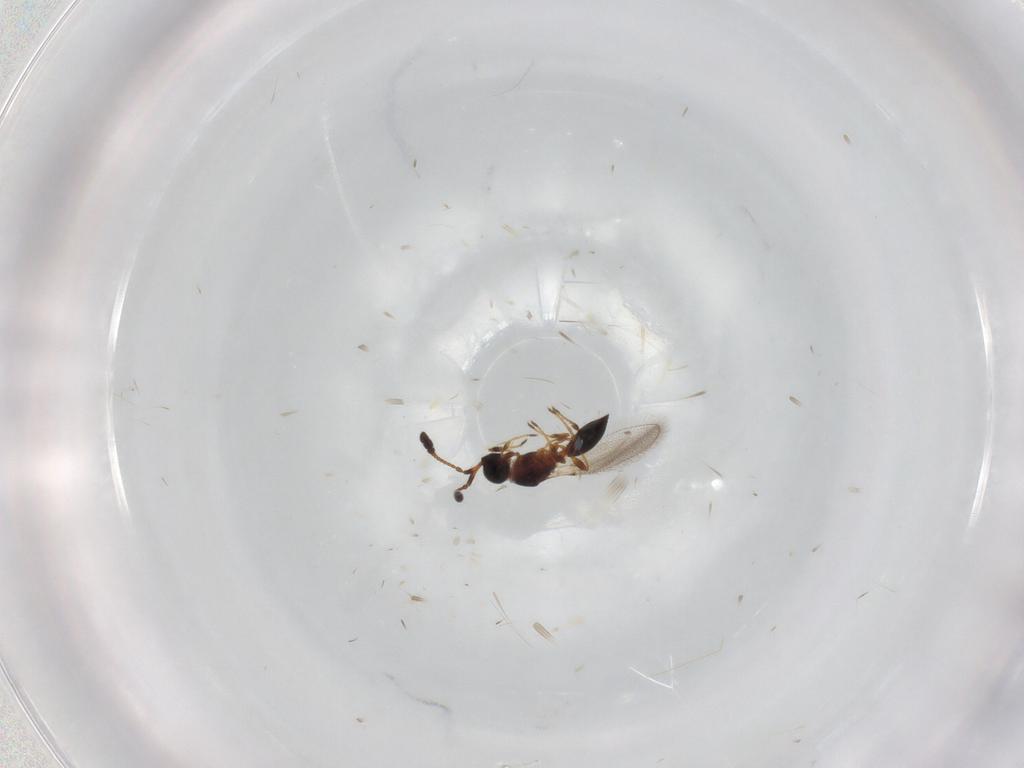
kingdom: Animalia
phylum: Arthropoda
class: Insecta
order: Hymenoptera
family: Diapriidae
